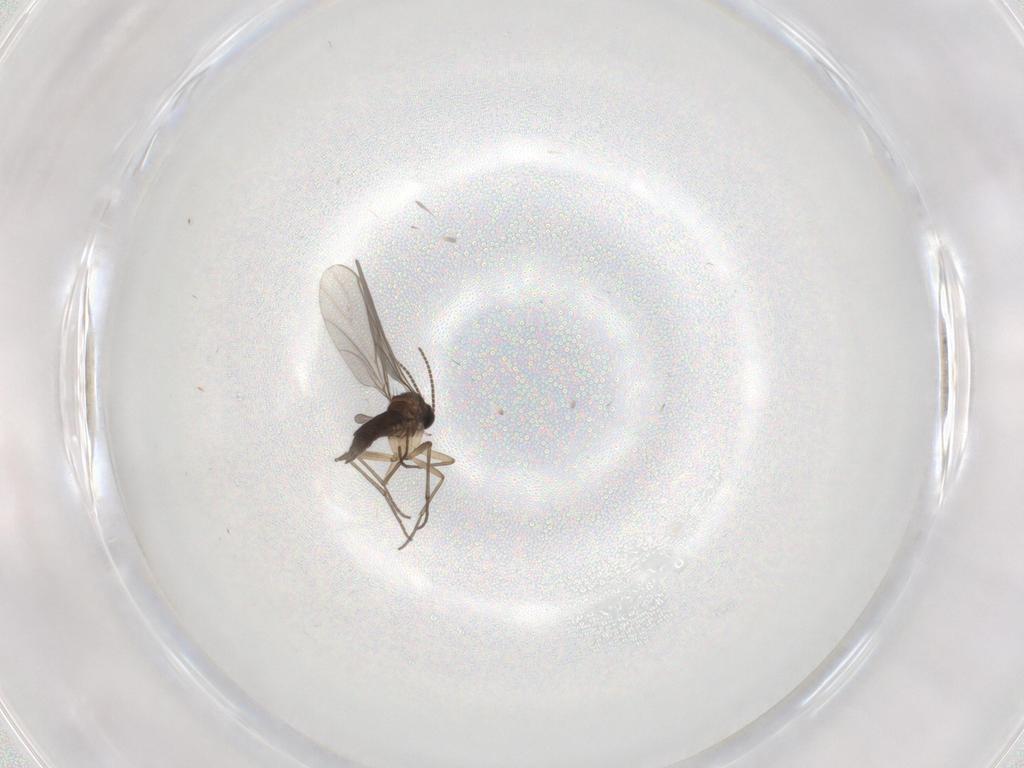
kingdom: Animalia
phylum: Arthropoda
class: Insecta
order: Diptera
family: Sciaridae
